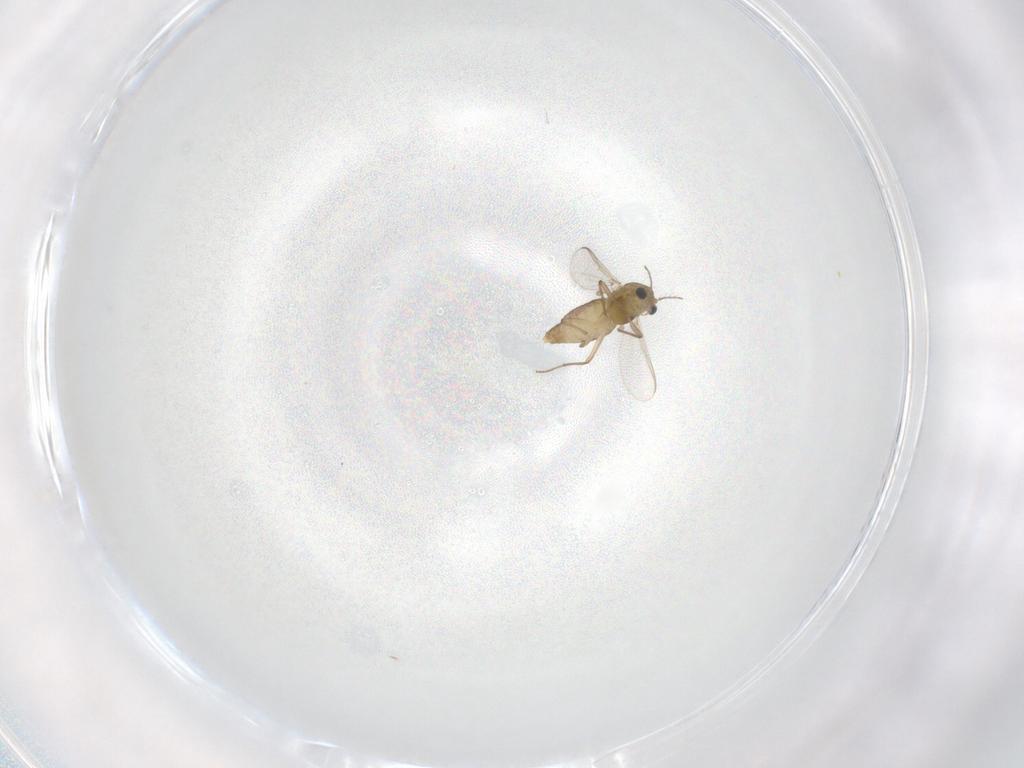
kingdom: Animalia
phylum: Arthropoda
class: Insecta
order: Diptera
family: Chironomidae
